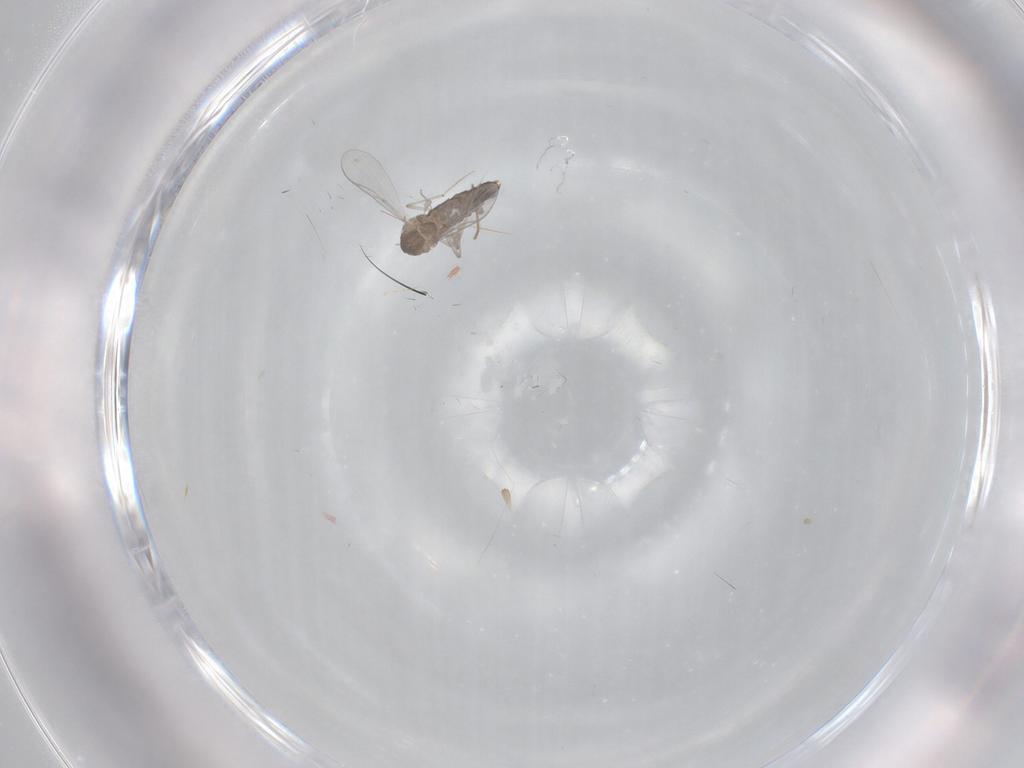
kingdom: Animalia
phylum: Arthropoda
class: Insecta
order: Diptera
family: Chironomidae
